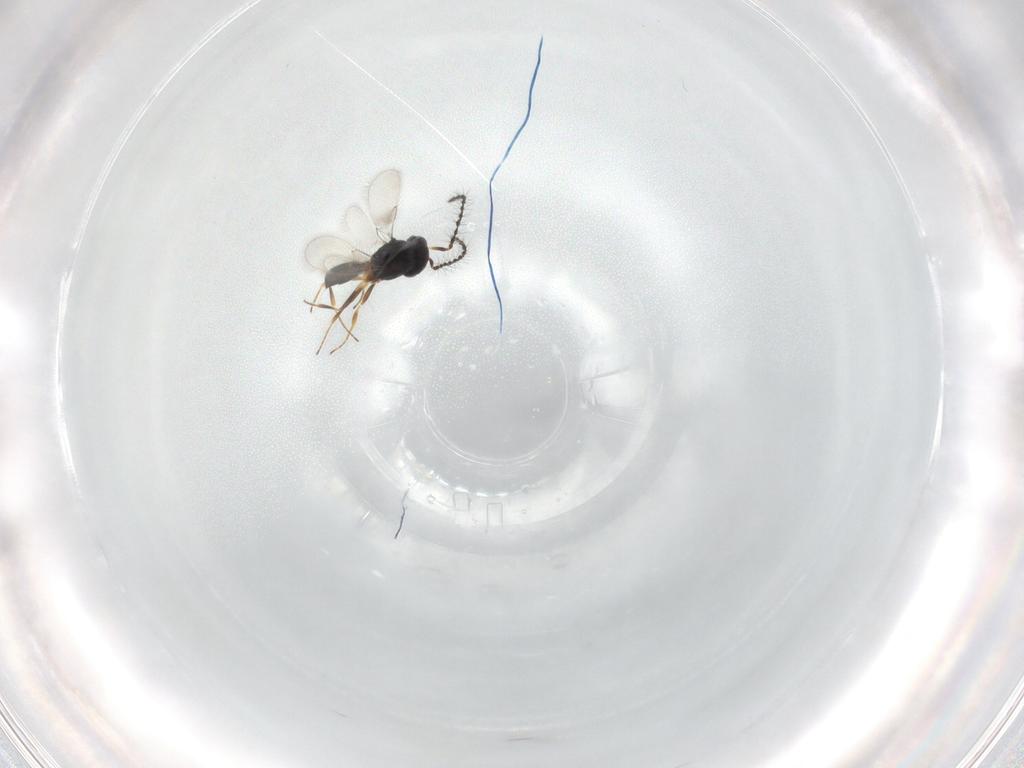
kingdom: Animalia
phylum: Arthropoda
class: Insecta
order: Hymenoptera
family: Scelionidae
